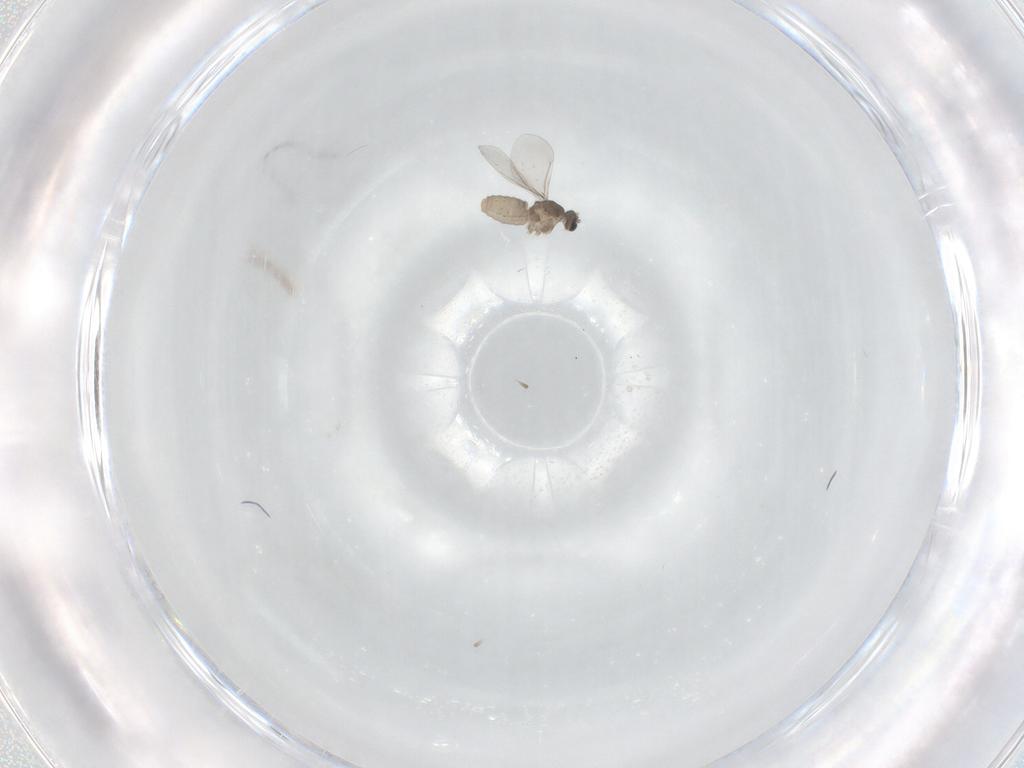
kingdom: Animalia
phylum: Arthropoda
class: Insecta
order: Diptera
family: Cecidomyiidae
